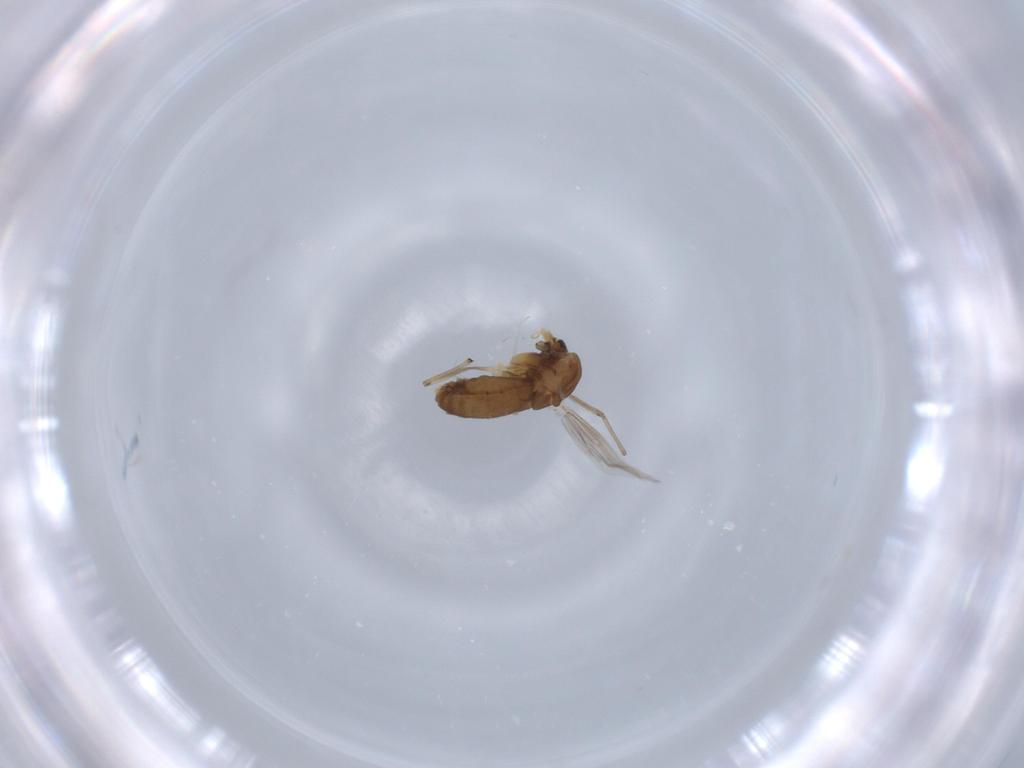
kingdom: Animalia
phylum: Arthropoda
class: Insecta
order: Diptera
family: Chironomidae
